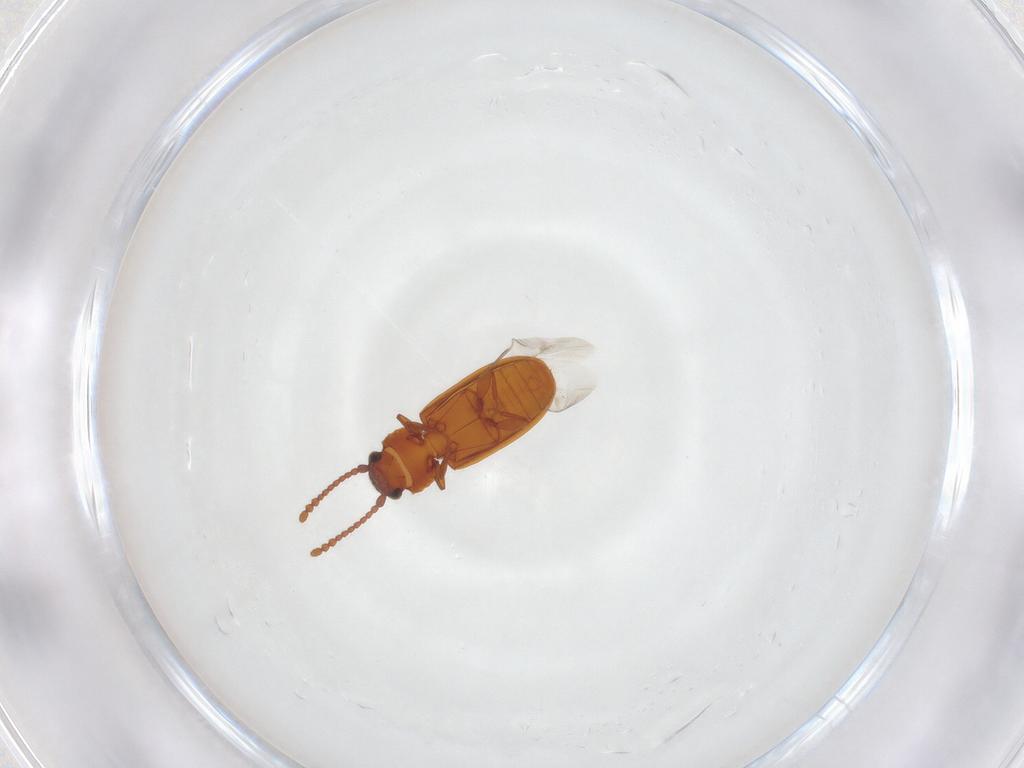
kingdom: Animalia
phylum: Arthropoda
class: Insecta
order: Coleoptera
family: Laemophloeidae
